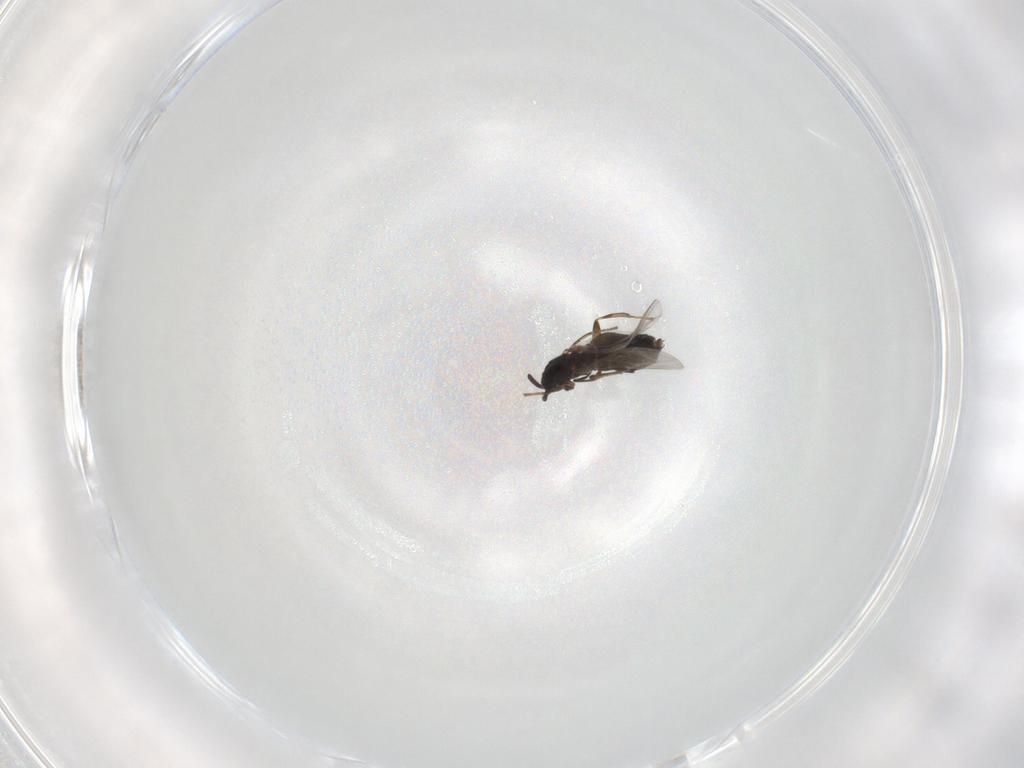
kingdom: Animalia
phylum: Arthropoda
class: Insecta
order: Diptera
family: Scatopsidae
